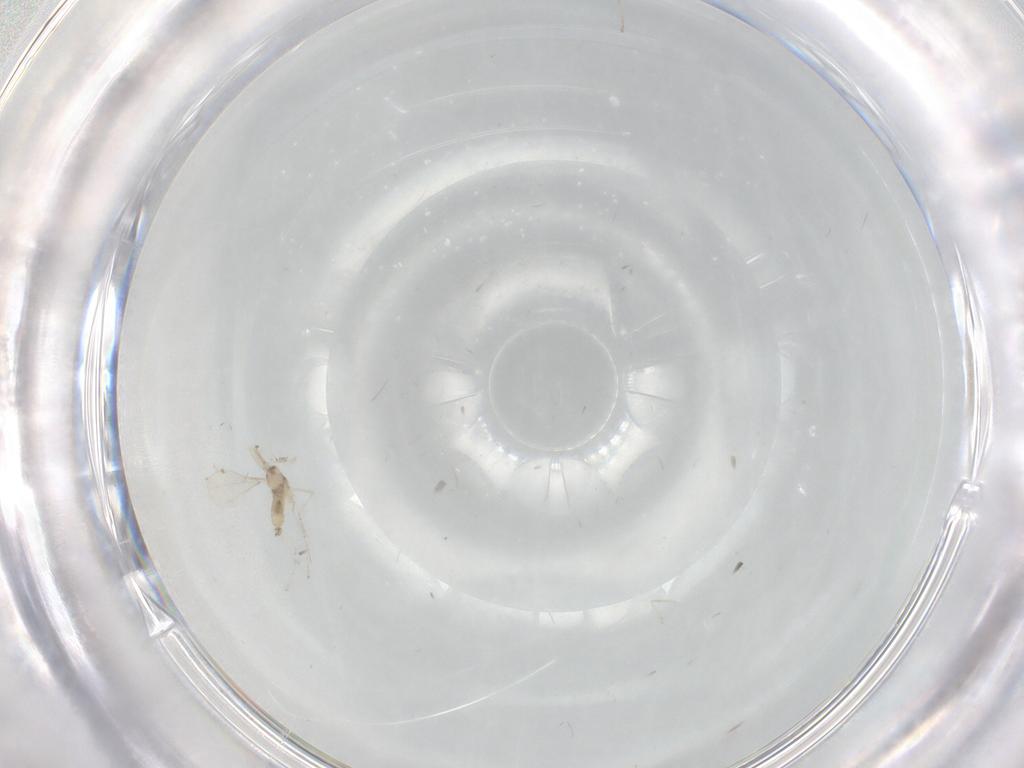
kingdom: Animalia
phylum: Arthropoda
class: Insecta
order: Diptera
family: Cecidomyiidae
